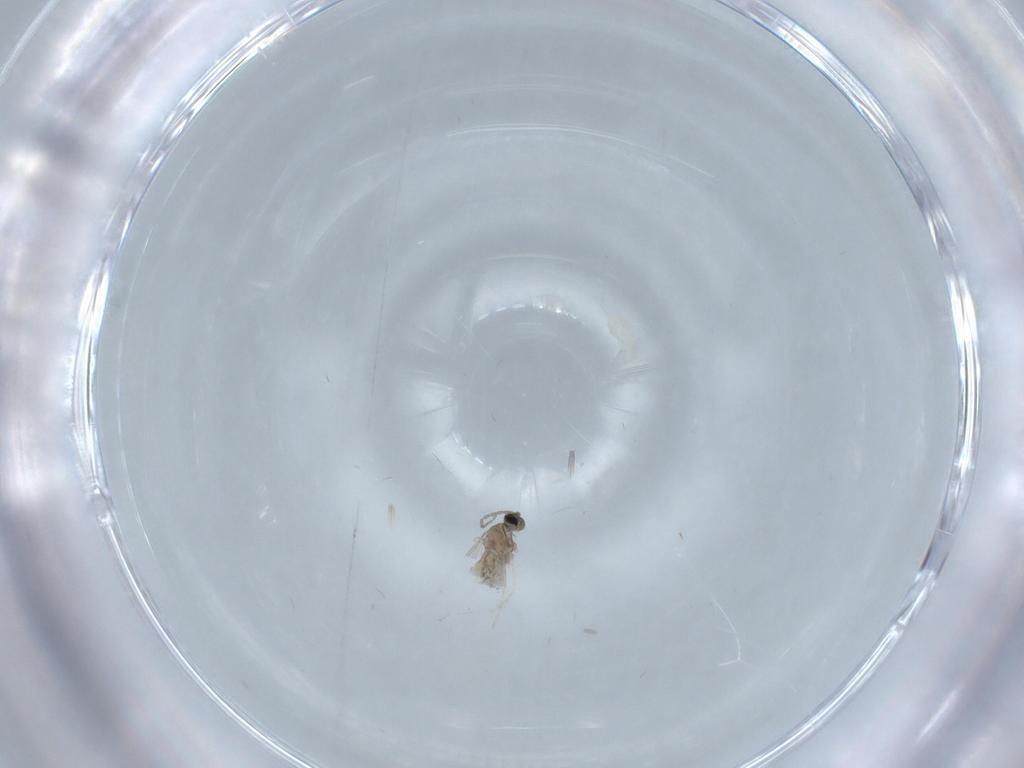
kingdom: Animalia
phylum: Arthropoda
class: Insecta
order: Diptera
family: Cecidomyiidae
